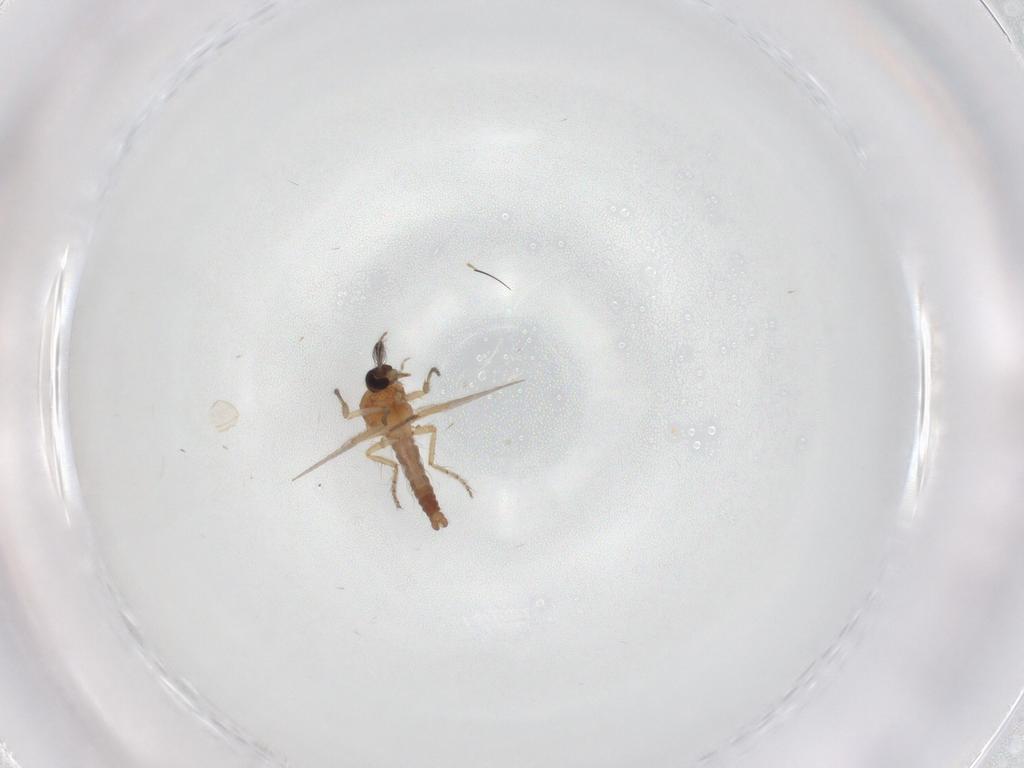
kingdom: Animalia
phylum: Arthropoda
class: Insecta
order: Diptera
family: Ceratopogonidae
